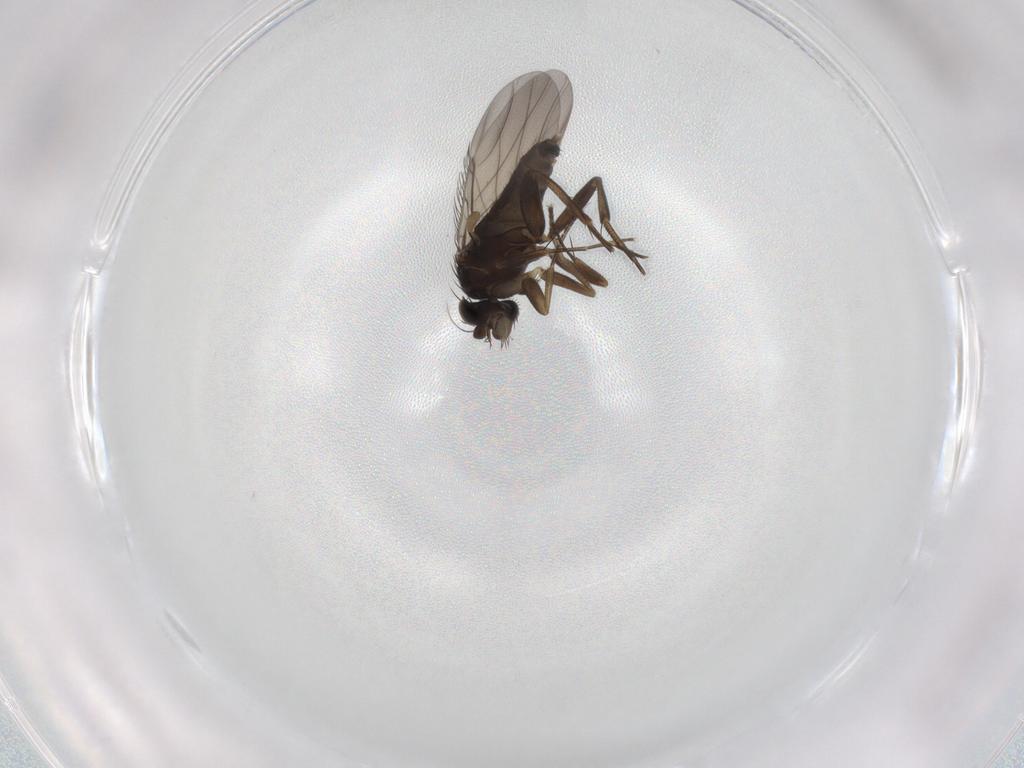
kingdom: Animalia
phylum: Arthropoda
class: Insecta
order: Diptera
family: Phoridae
